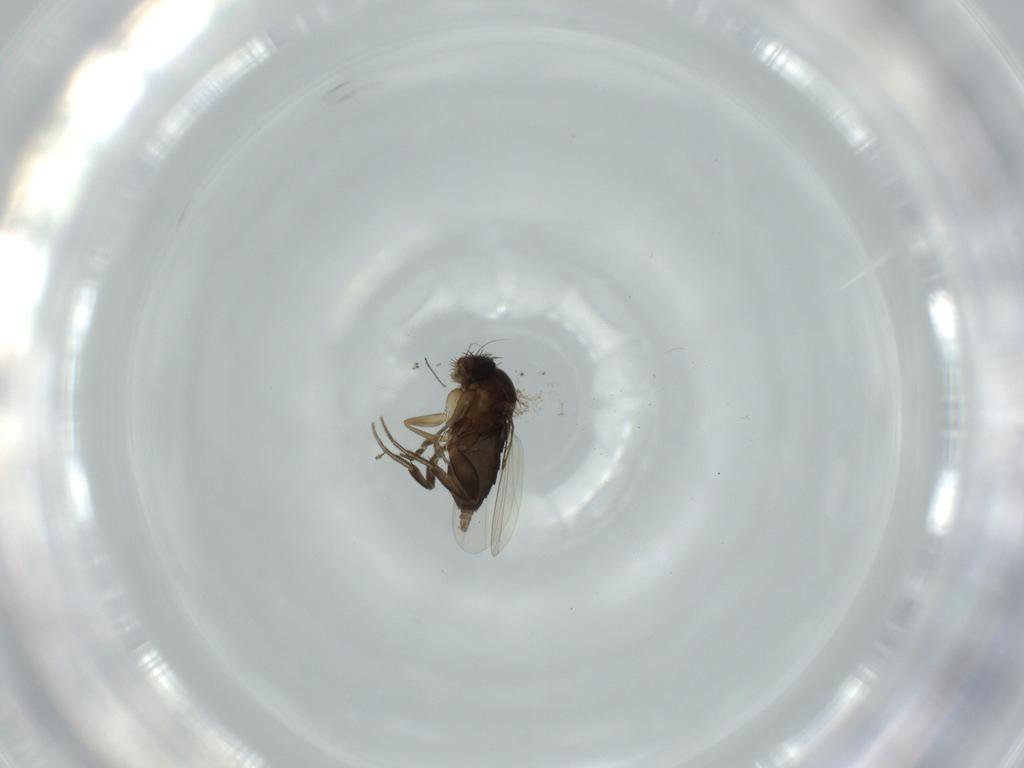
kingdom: Animalia
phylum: Arthropoda
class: Insecta
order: Diptera
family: Phoridae
